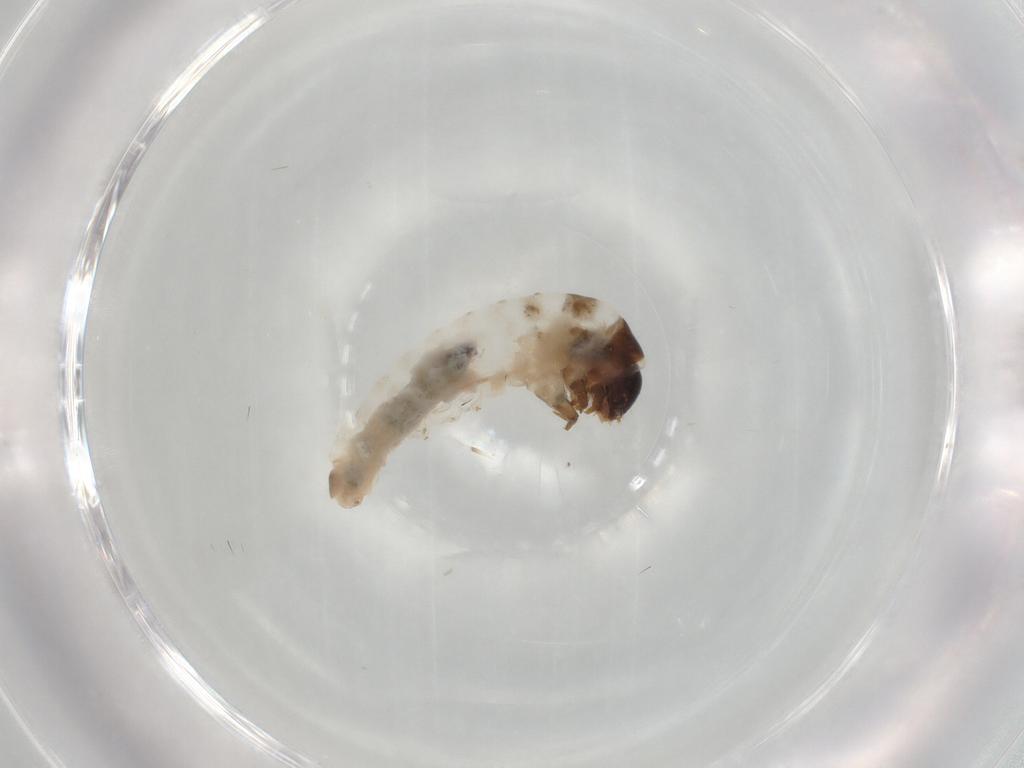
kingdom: Animalia
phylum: Arthropoda
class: Insecta
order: Lepidoptera
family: Psychidae
